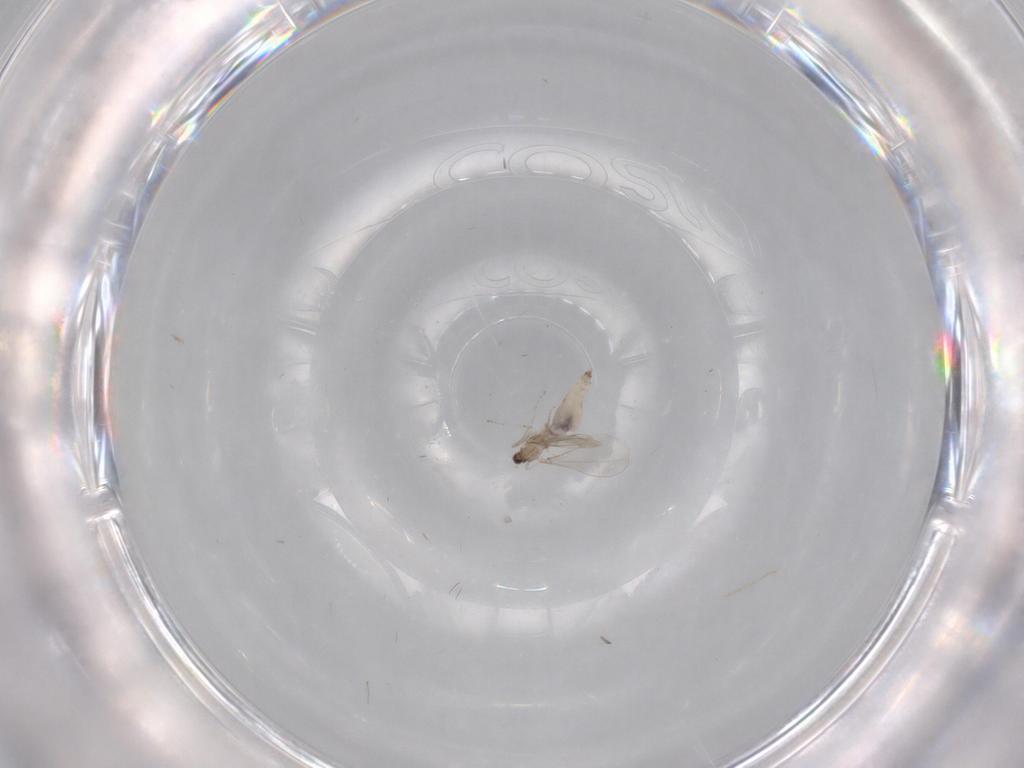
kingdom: Animalia
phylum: Arthropoda
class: Insecta
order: Diptera
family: Cecidomyiidae
